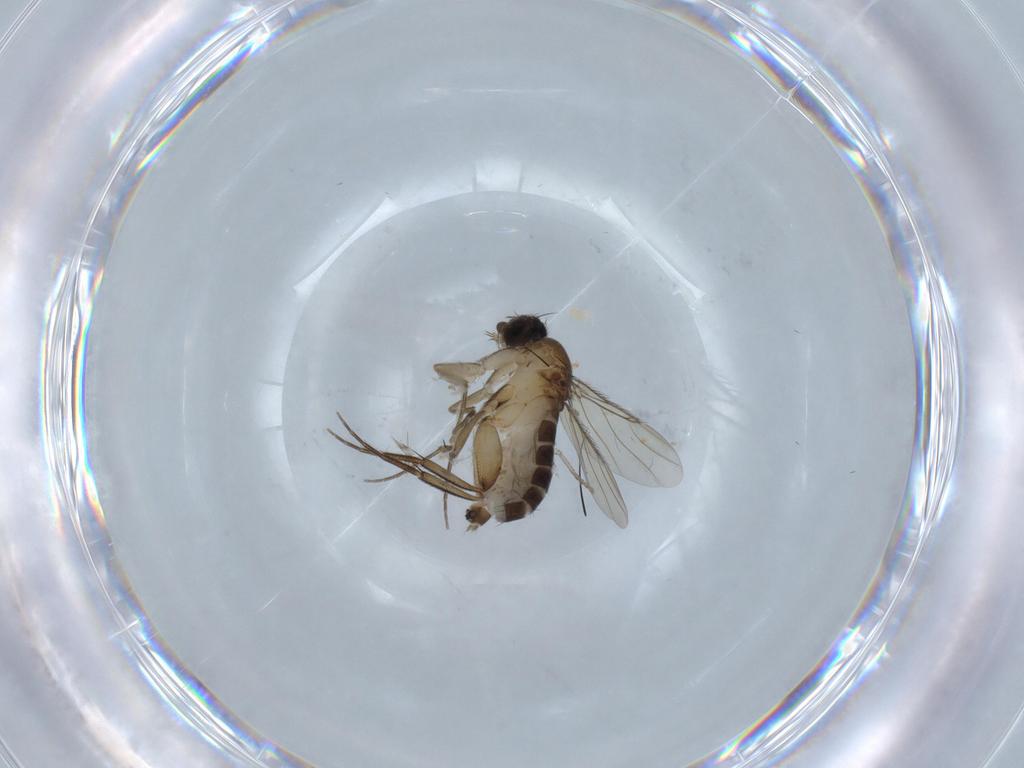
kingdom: Animalia
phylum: Arthropoda
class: Insecta
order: Diptera
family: Phoridae
